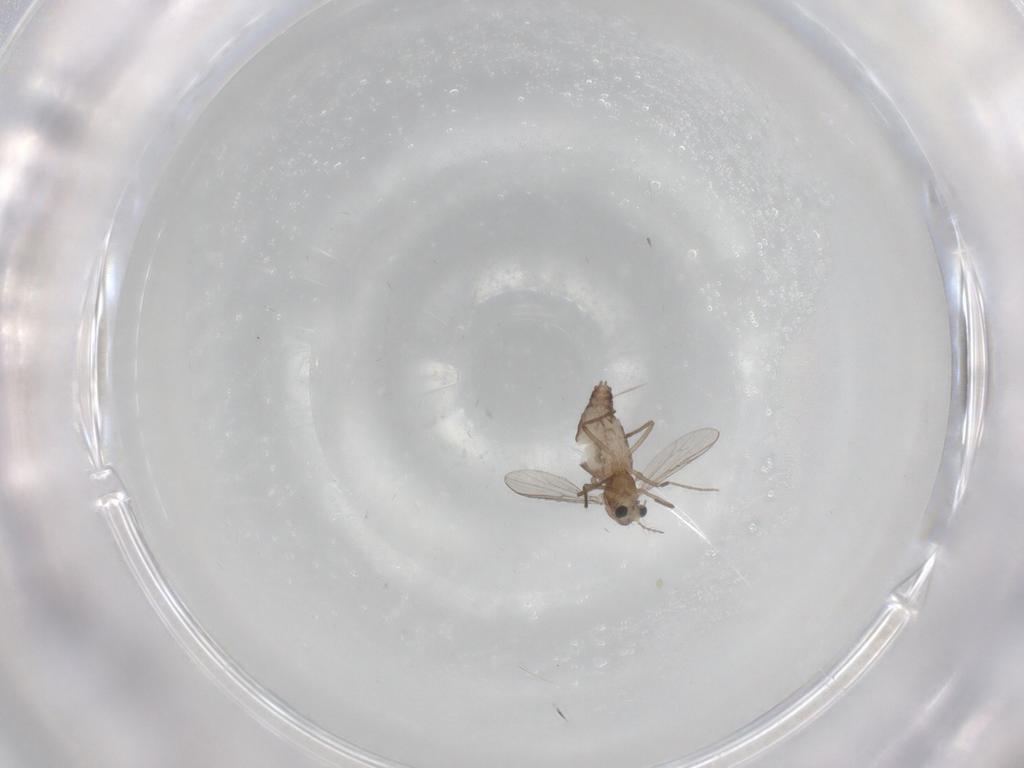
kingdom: Animalia
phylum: Arthropoda
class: Insecta
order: Diptera
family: Chironomidae
